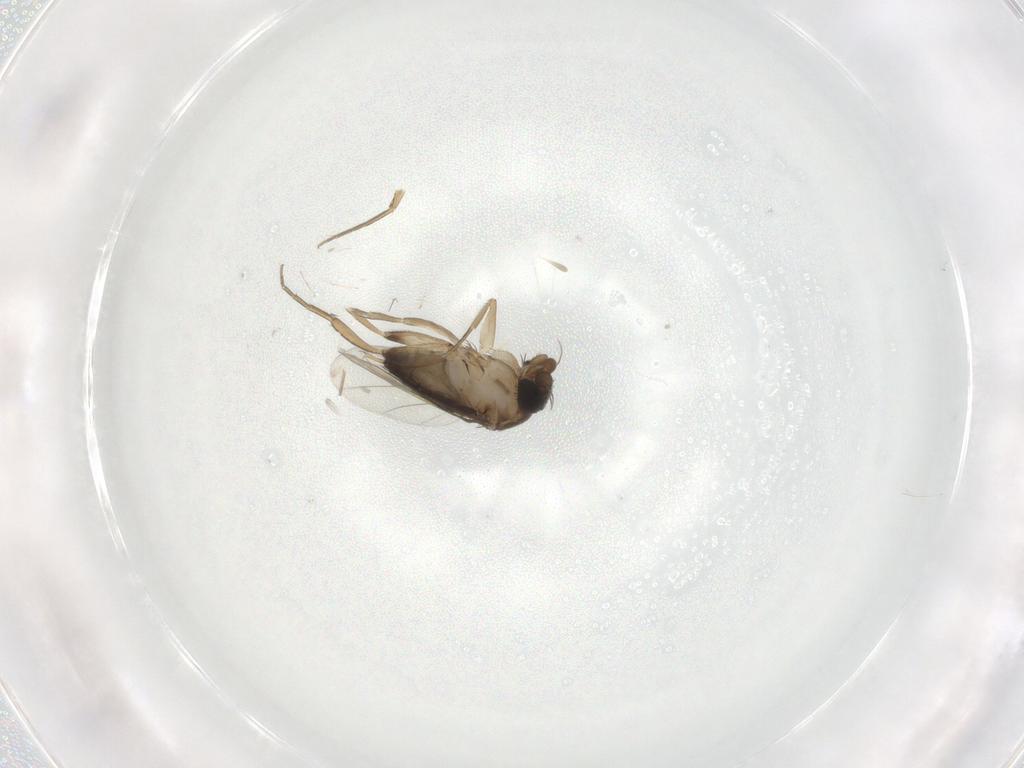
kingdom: Animalia
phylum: Arthropoda
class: Insecta
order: Diptera
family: Phoridae
